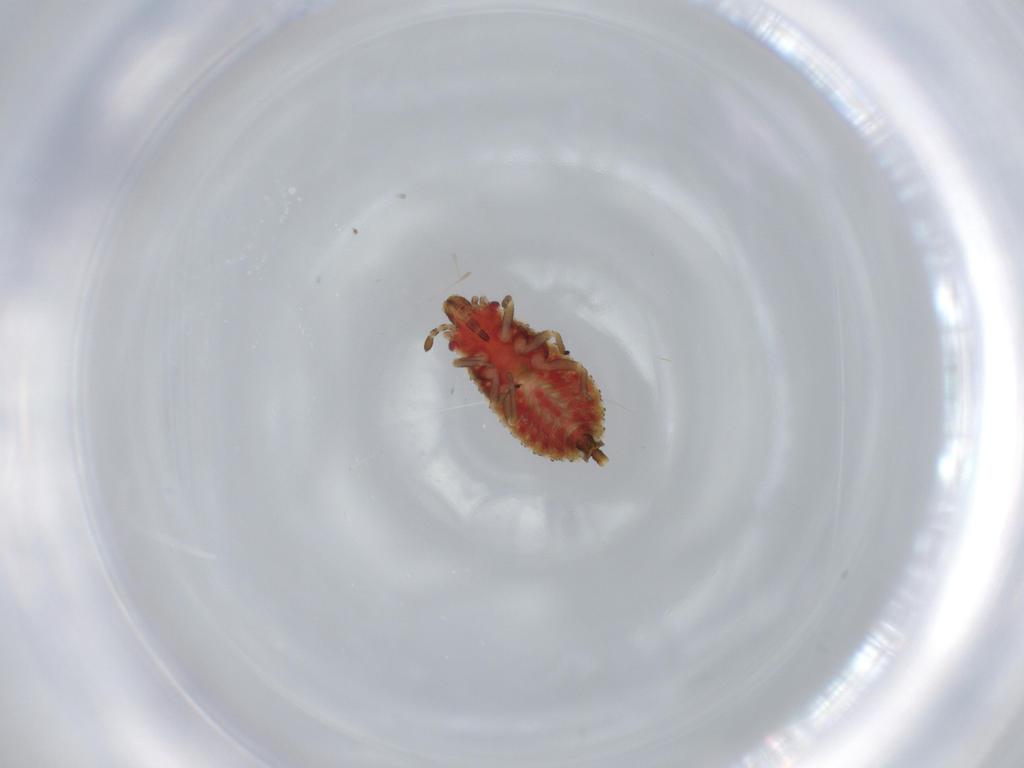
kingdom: Animalia
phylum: Arthropoda
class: Insecta
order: Hemiptera
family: Aradidae
